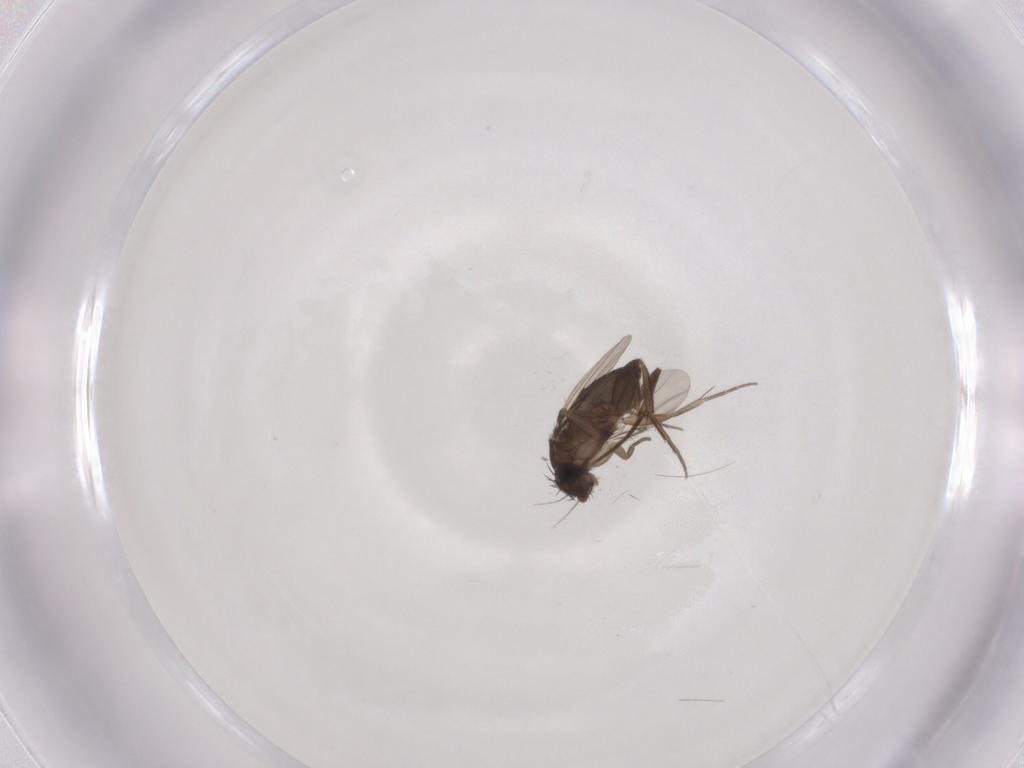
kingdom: Animalia
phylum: Arthropoda
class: Insecta
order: Diptera
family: Phoridae
